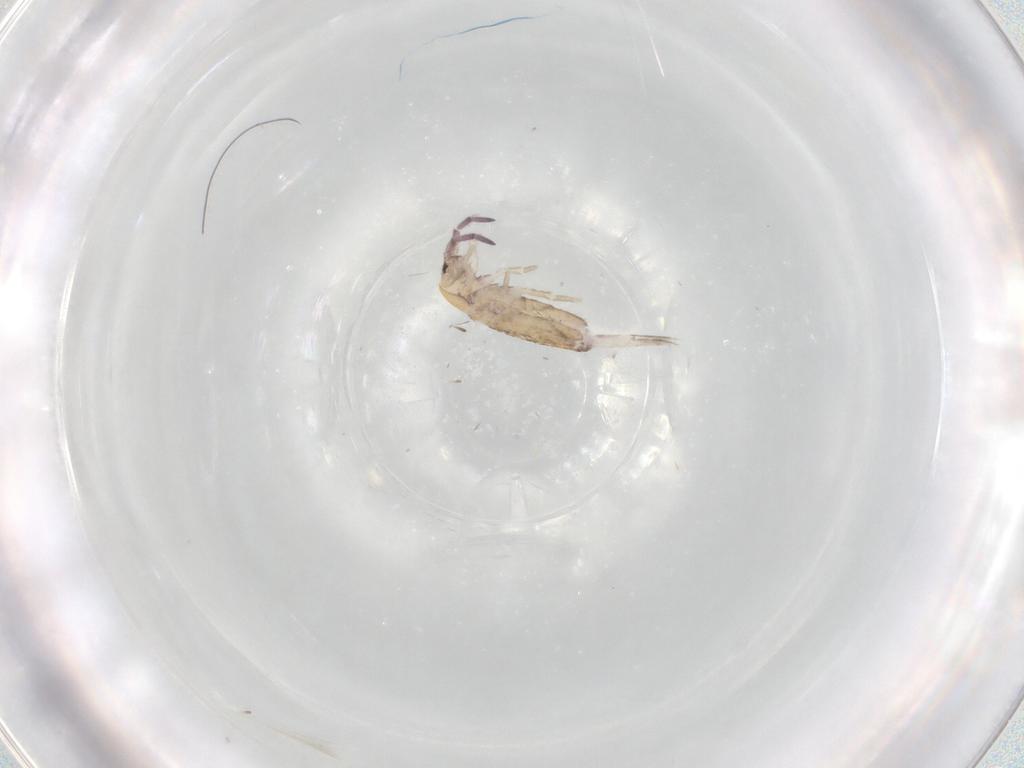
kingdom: Animalia
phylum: Arthropoda
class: Collembola
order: Entomobryomorpha
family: Entomobryidae
